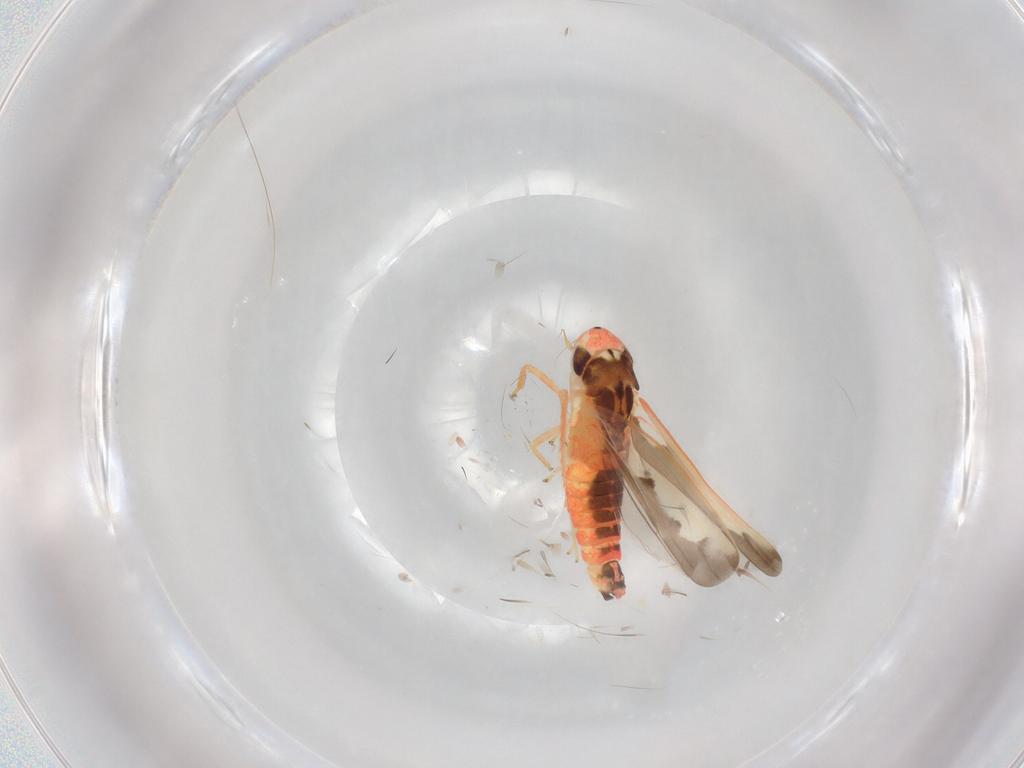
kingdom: Animalia
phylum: Arthropoda
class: Insecta
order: Hemiptera
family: Cicadellidae
